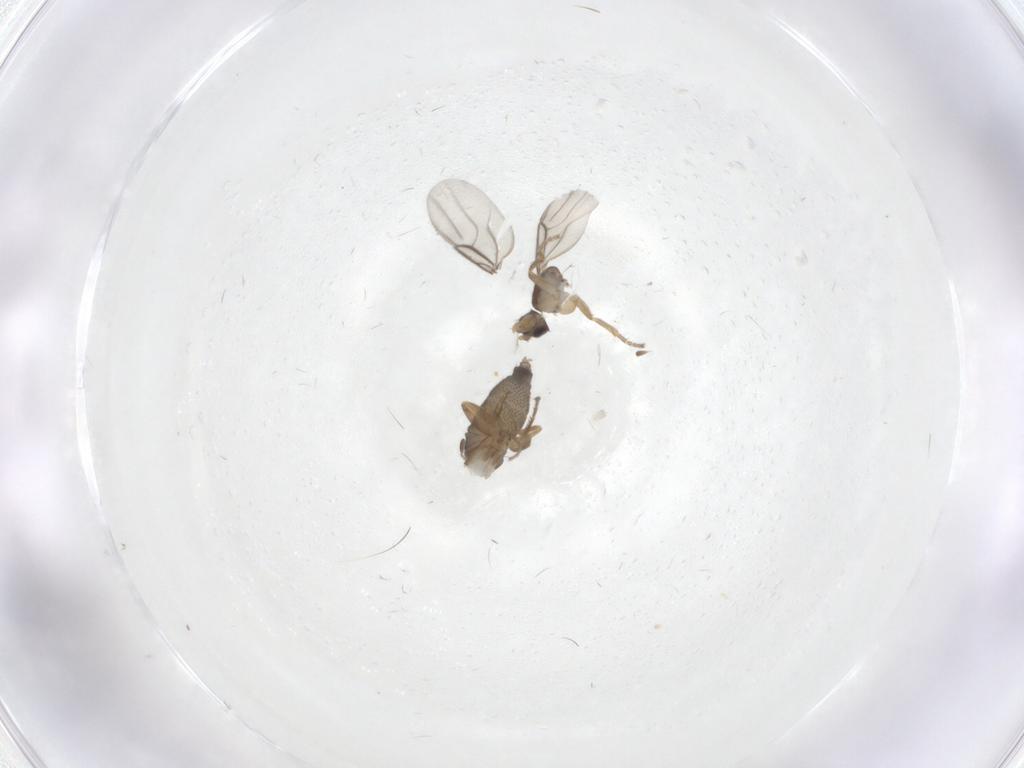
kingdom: Animalia
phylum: Arthropoda
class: Insecta
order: Diptera
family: Phoridae
